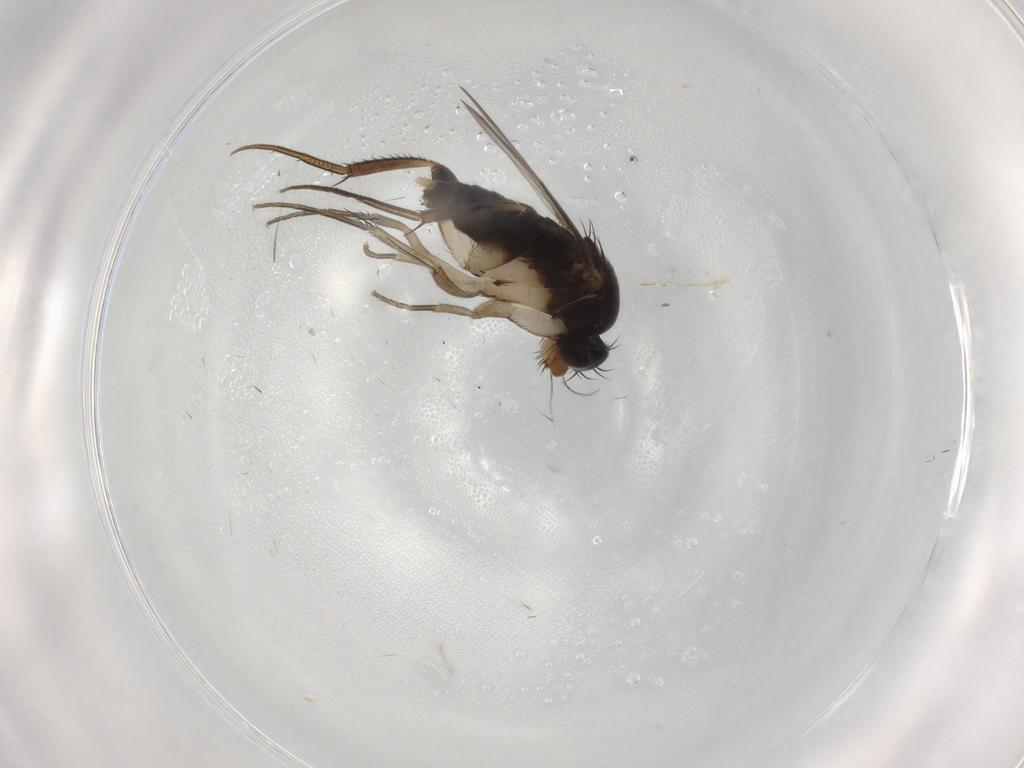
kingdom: Animalia
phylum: Arthropoda
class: Insecta
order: Diptera
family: Phoridae
